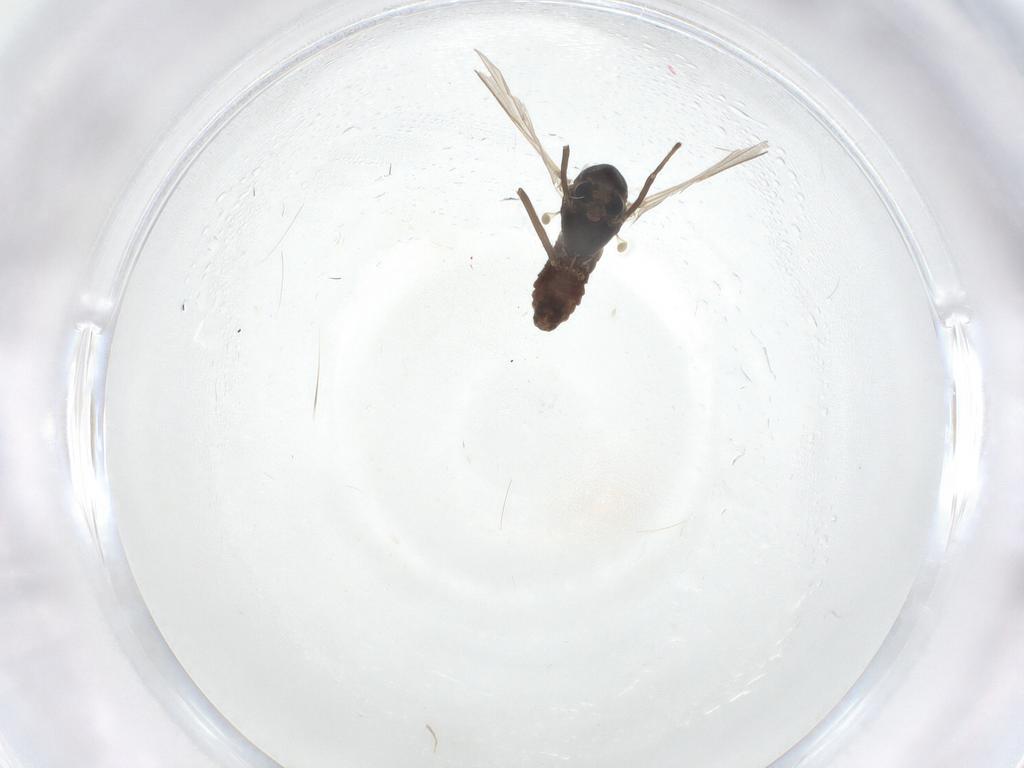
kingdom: Animalia
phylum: Arthropoda
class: Insecta
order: Diptera
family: Chironomidae
